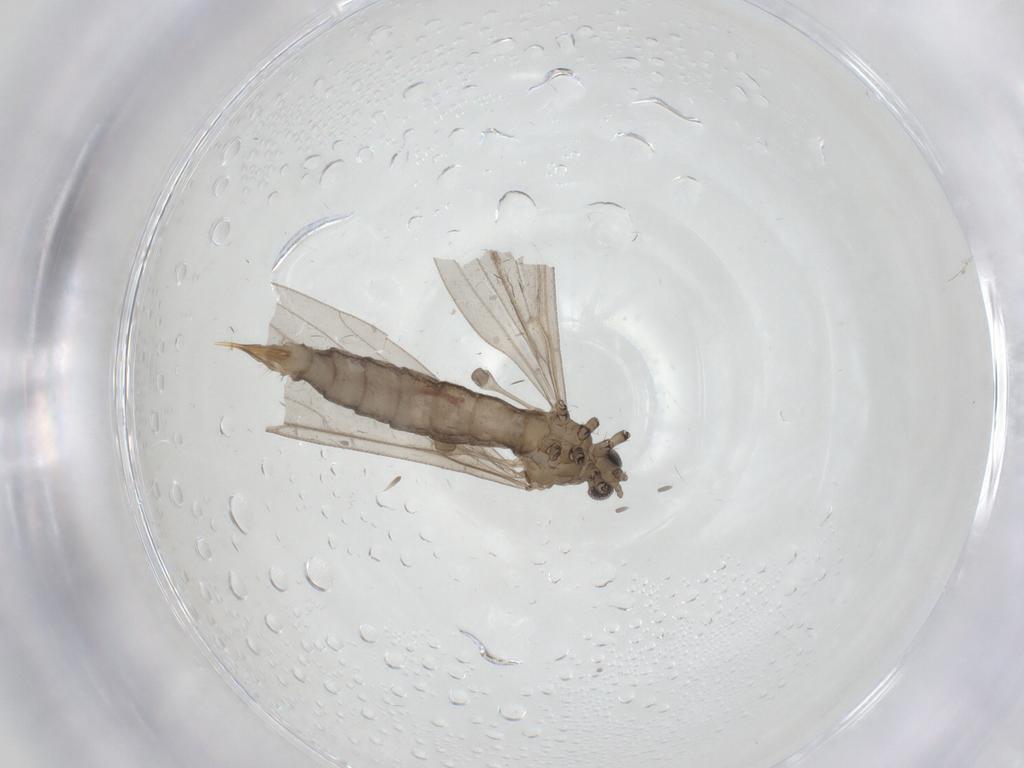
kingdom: Animalia
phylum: Arthropoda
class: Insecta
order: Diptera
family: Limoniidae
